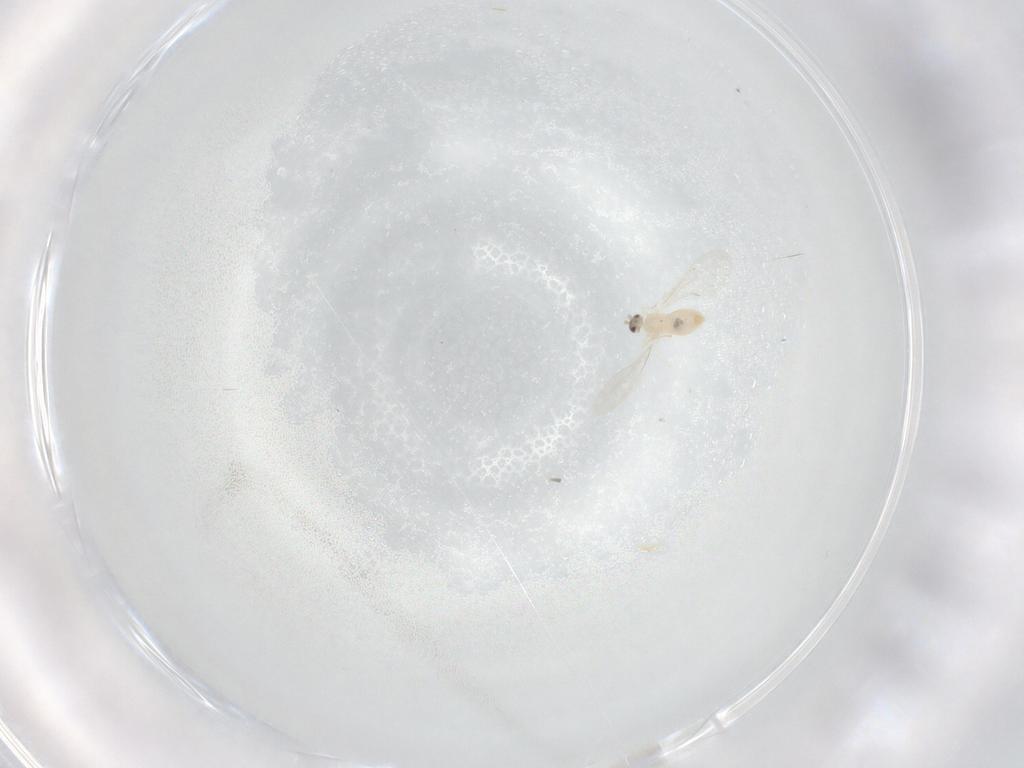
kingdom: Animalia
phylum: Arthropoda
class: Insecta
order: Diptera
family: Cecidomyiidae
